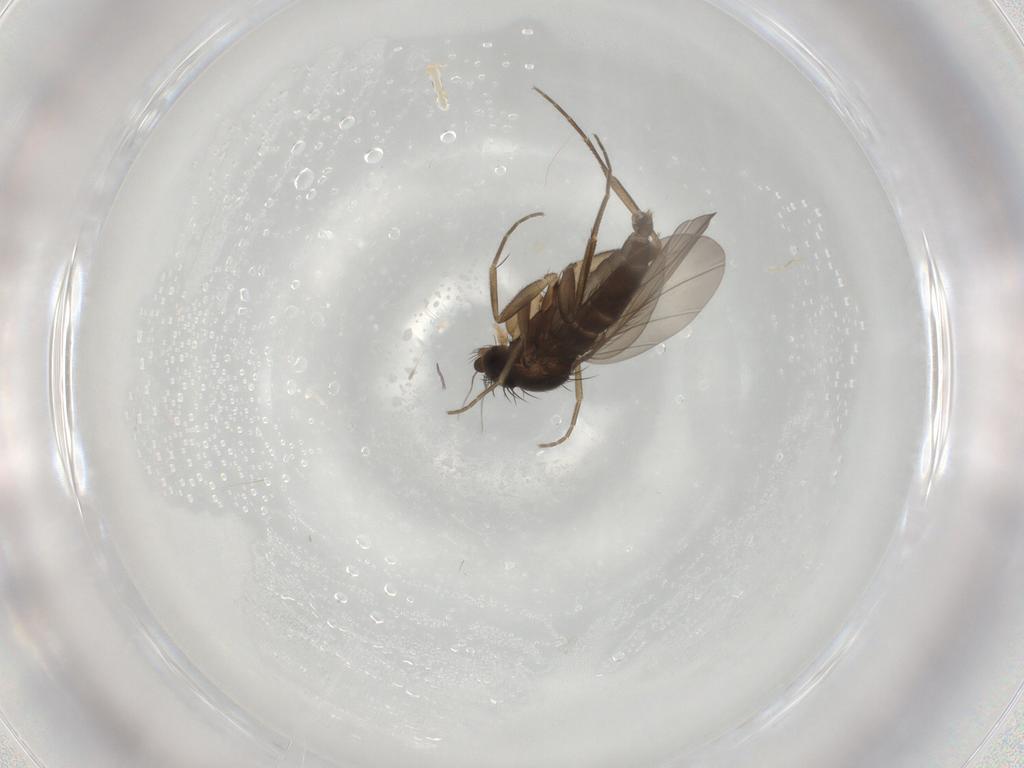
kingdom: Animalia
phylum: Arthropoda
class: Insecta
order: Diptera
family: Phoridae
